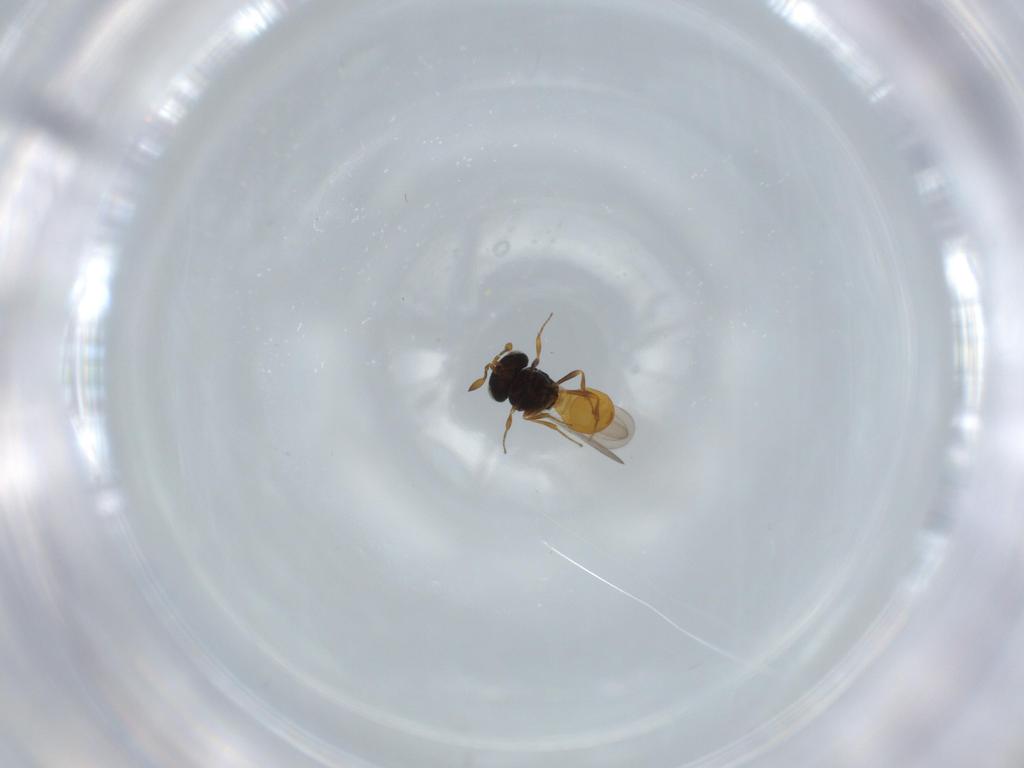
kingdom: Animalia
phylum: Arthropoda
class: Insecta
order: Hymenoptera
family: Scelionidae
